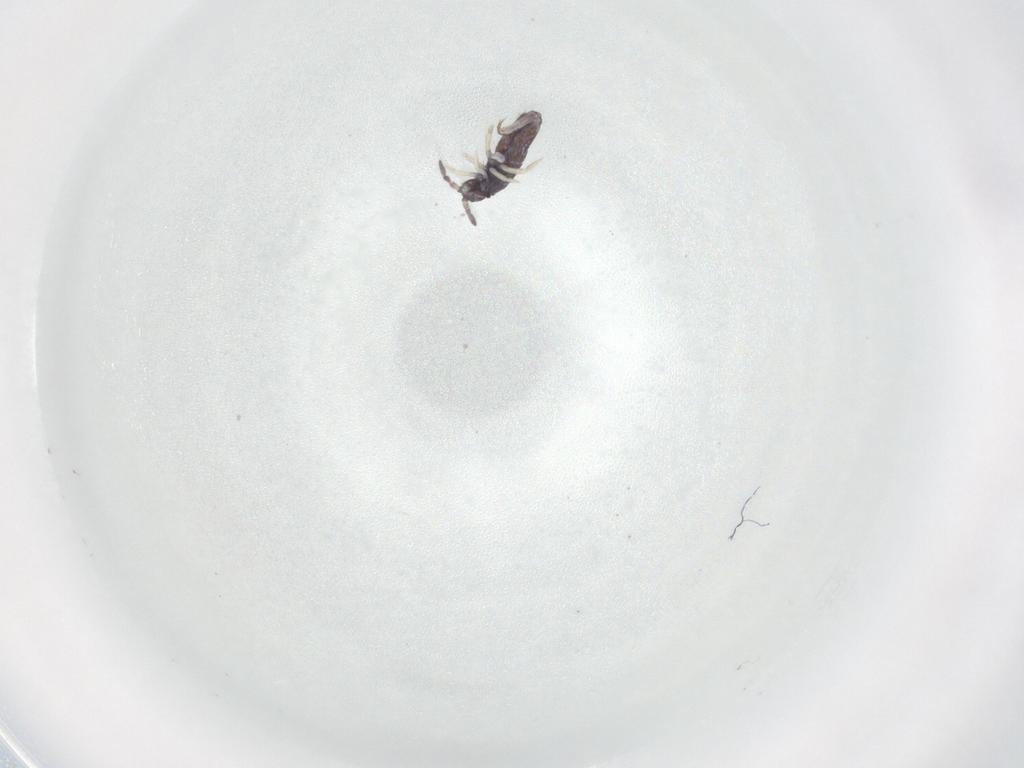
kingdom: Animalia
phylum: Arthropoda
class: Collembola
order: Entomobryomorpha
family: Entomobryidae
